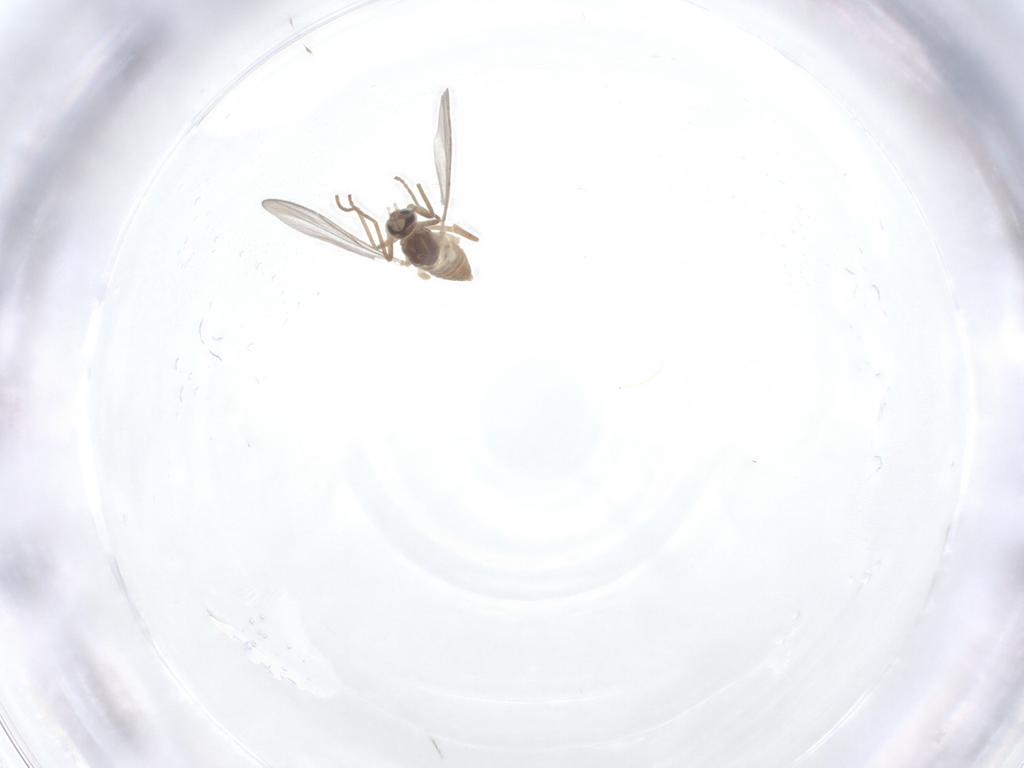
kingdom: Animalia
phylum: Arthropoda
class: Insecta
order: Diptera
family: Cecidomyiidae
